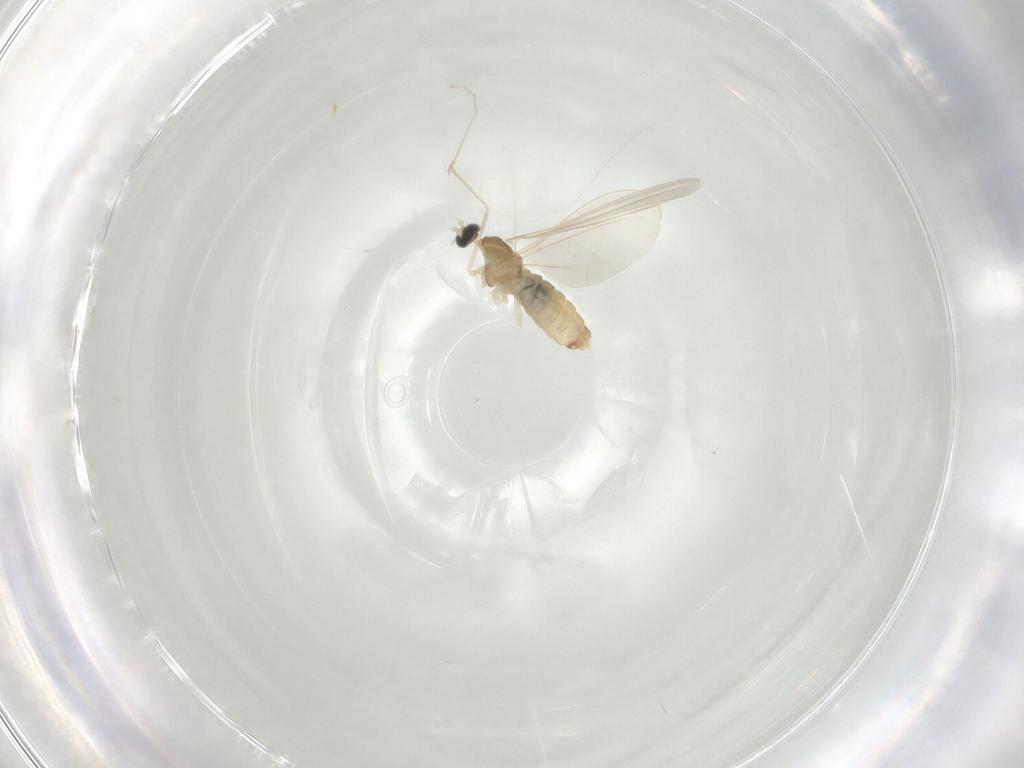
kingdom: Animalia
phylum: Arthropoda
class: Insecta
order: Diptera
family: Cecidomyiidae
